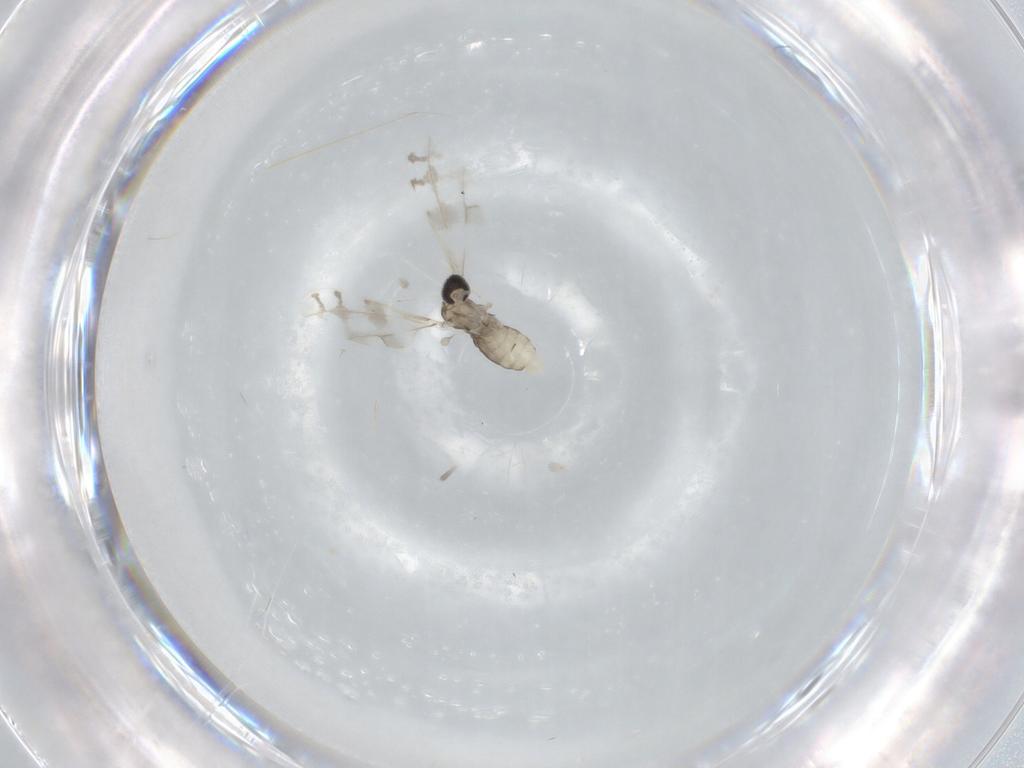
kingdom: Animalia
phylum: Arthropoda
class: Insecta
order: Diptera
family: Cecidomyiidae
